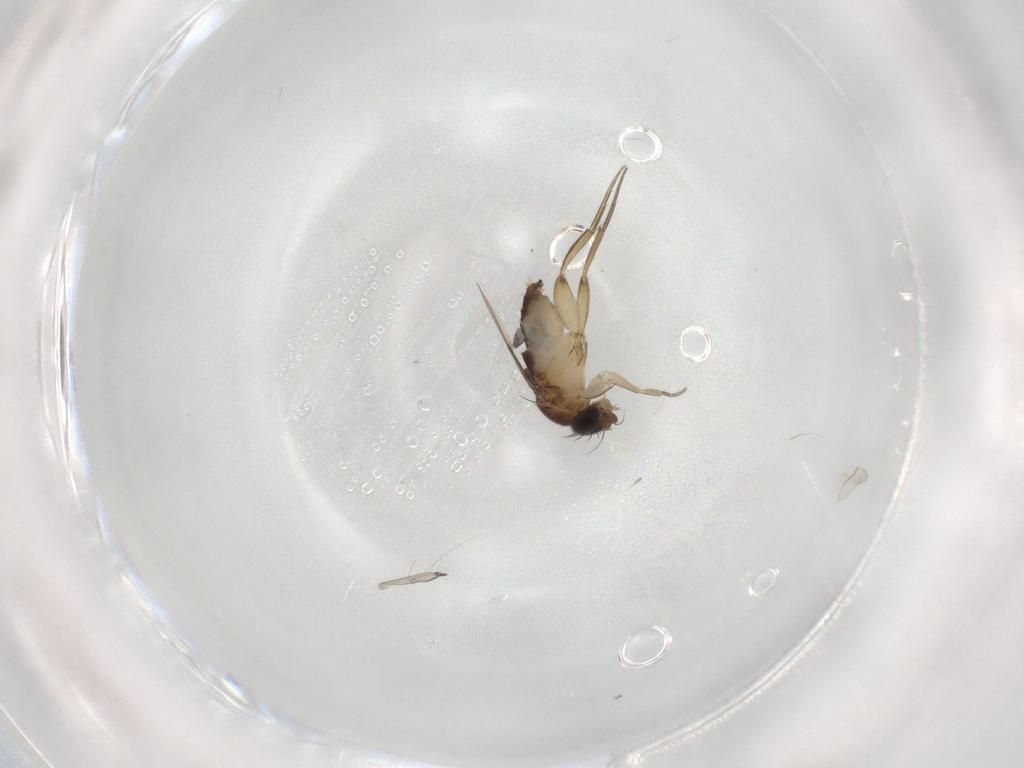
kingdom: Animalia
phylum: Arthropoda
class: Insecta
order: Diptera
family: Phoridae
